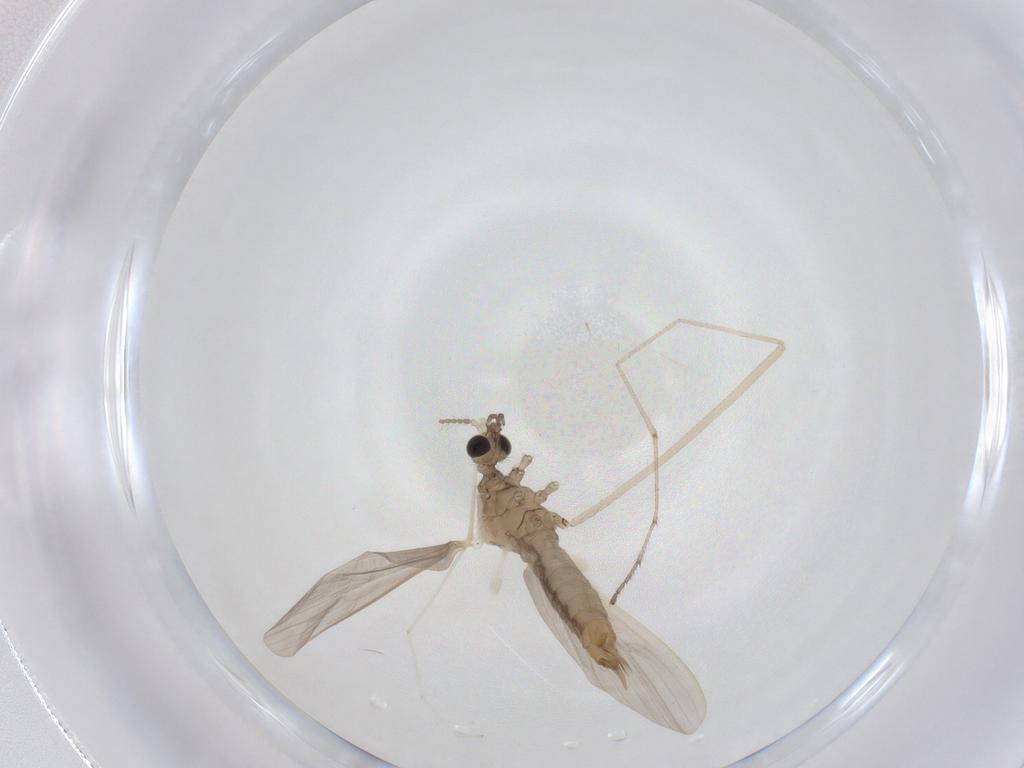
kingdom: Animalia
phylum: Arthropoda
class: Insecta
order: Diptera
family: Limoniidae
